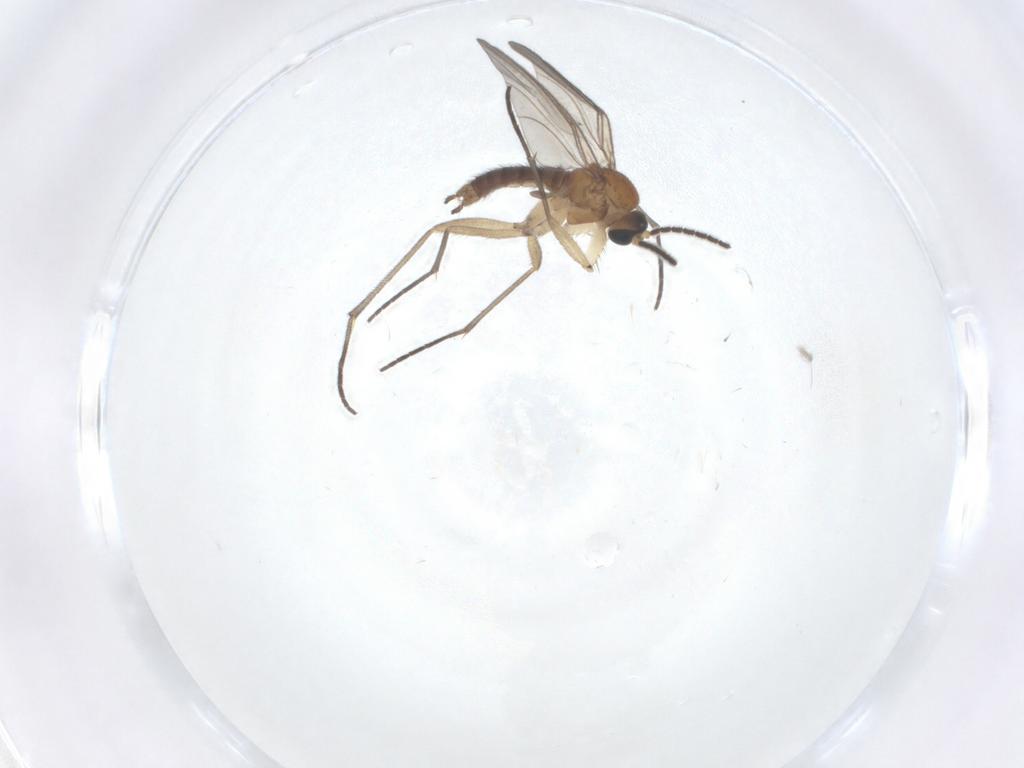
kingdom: Animalia
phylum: Arthropoda
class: Insecta
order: Diptera
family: Sciaridae
